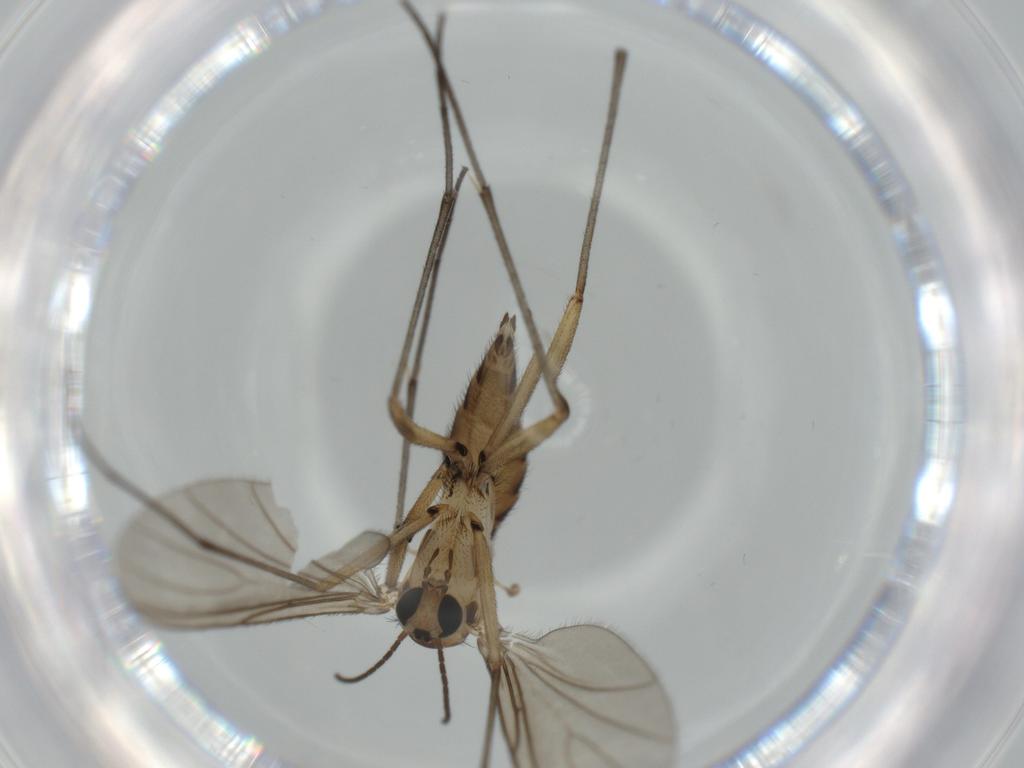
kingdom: Animalia
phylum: Arthropoda
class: Insecta
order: Diptera
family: Sciaridae
